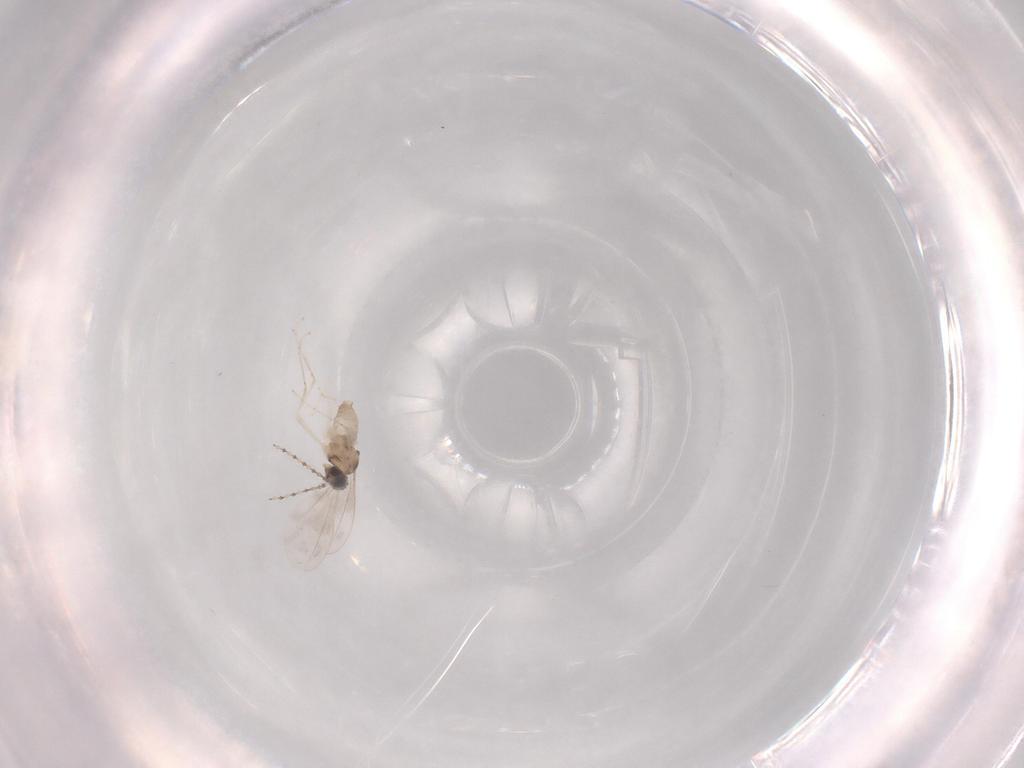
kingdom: Animalia
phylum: Arthropoda
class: Insecta
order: Diptera
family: Cecidomyiidae
